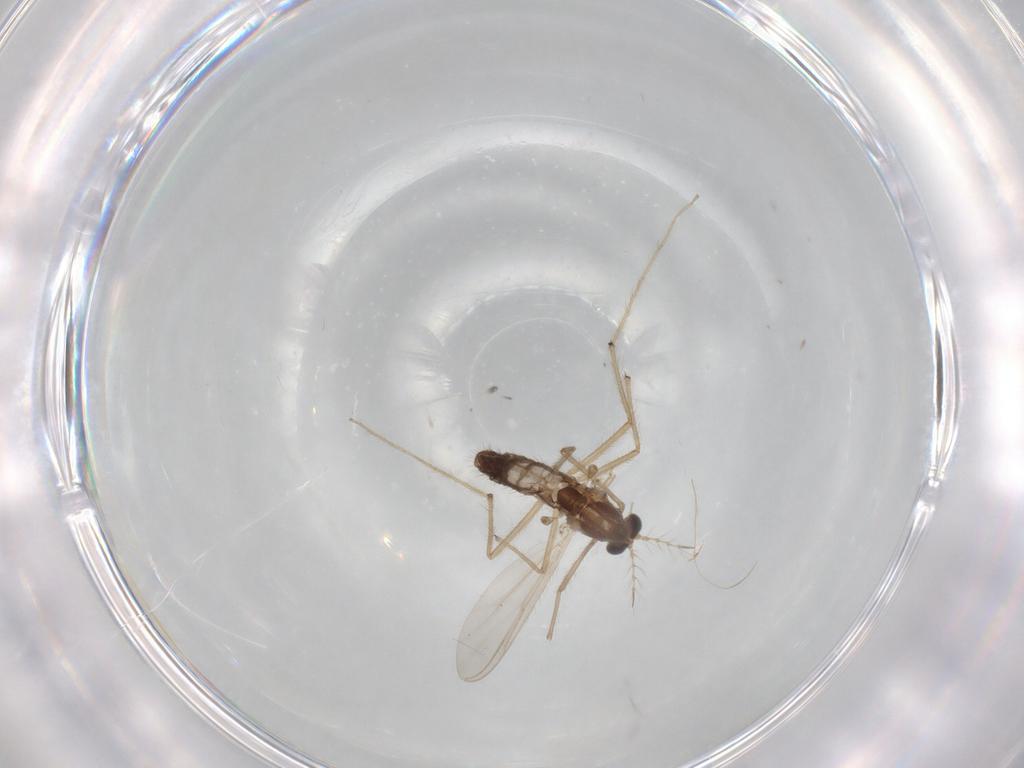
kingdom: Animalia
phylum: Arthropoda
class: Insecta
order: Diptera
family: Chironomidae
